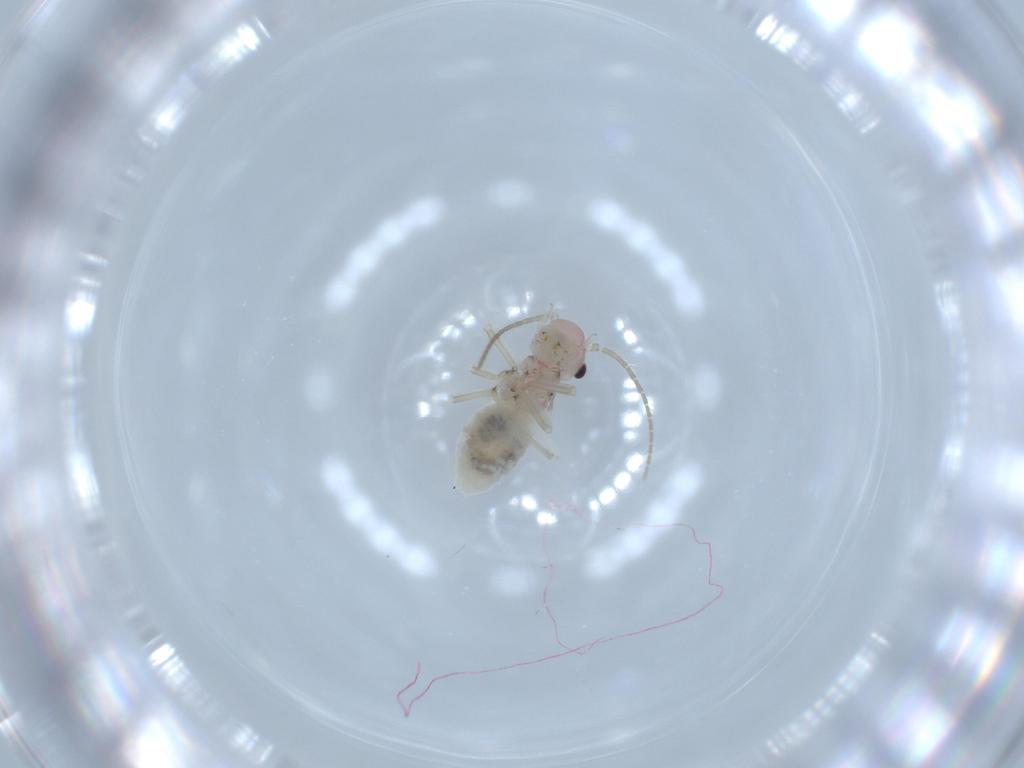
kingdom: Animalia
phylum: Arthropoda
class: Insecta
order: Psocodea
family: Amphipsocidae
